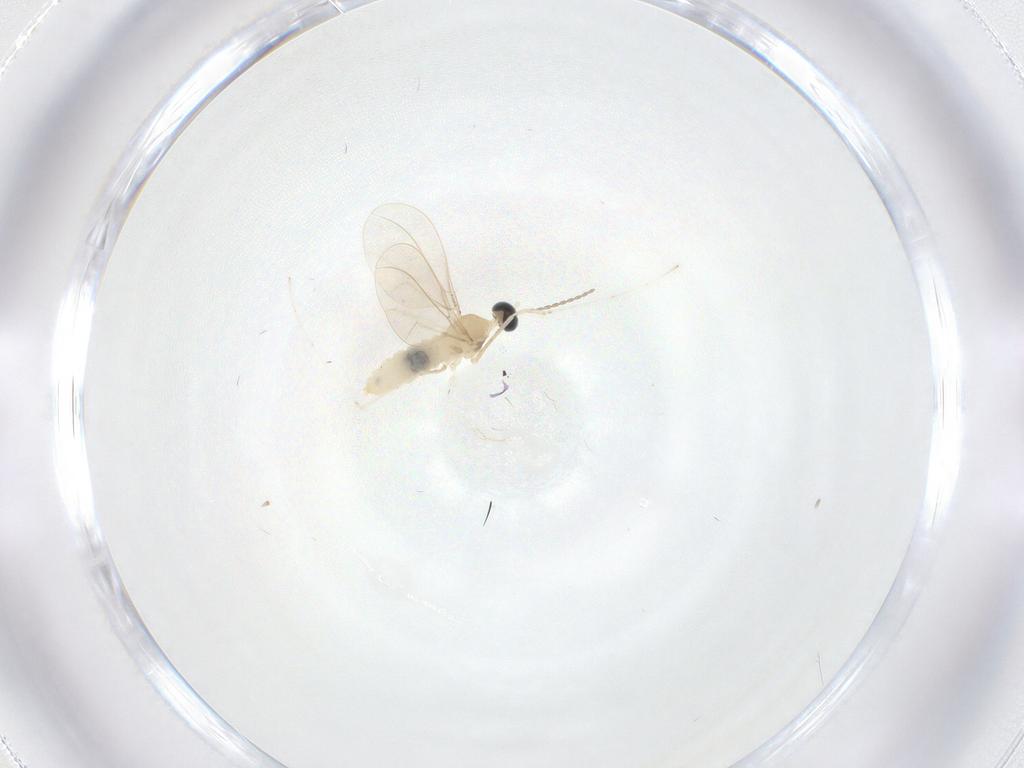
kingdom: Animalia
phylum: Arthropoda
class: Insecta
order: Diptera
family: Cecidomyiidae
